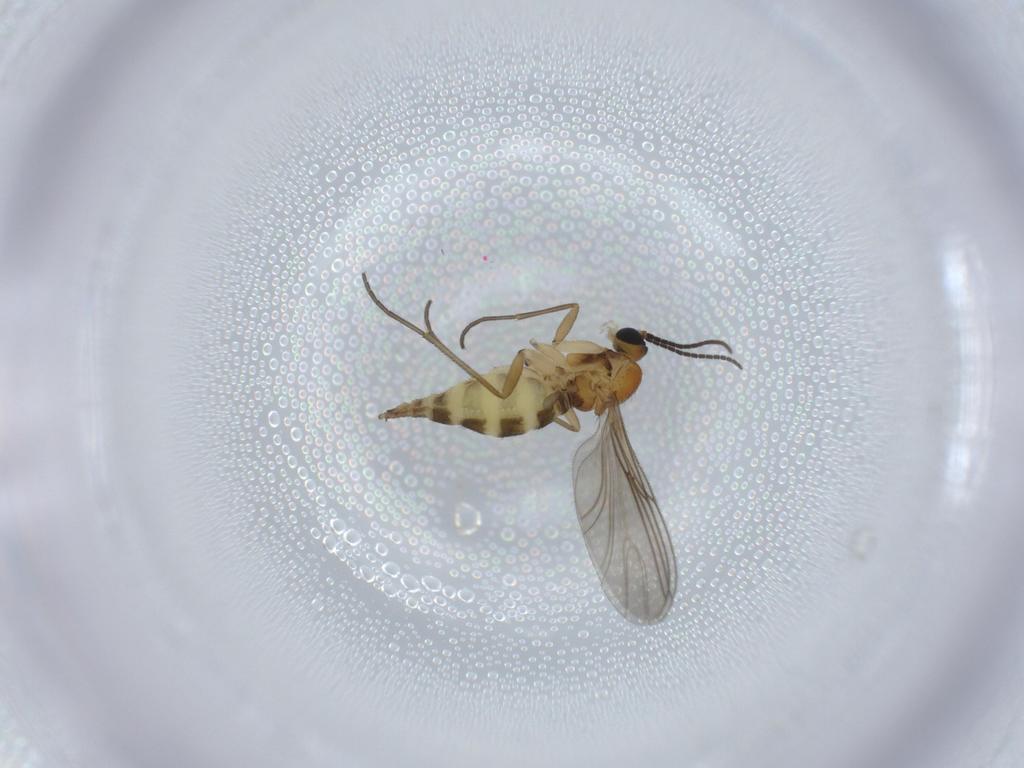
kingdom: Animalia
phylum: Arthropoda
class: Insecta
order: Diptera
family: Sciaridae
